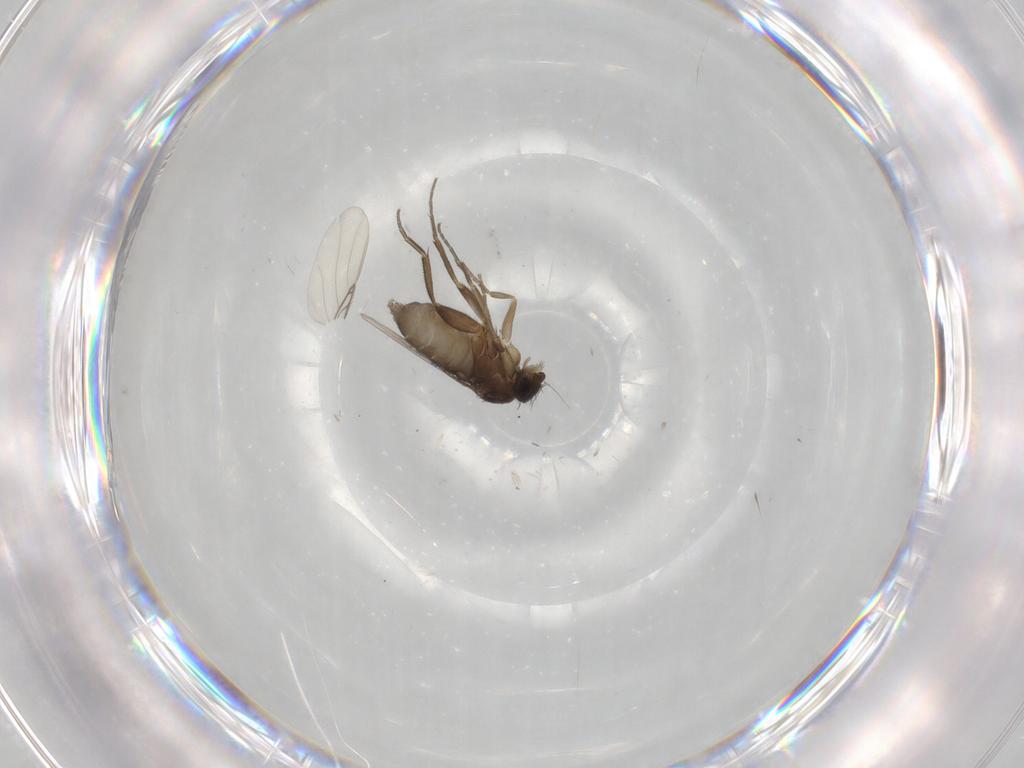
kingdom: Animalia
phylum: Arthropoda
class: Insecta
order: Diptera
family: Phoridae
